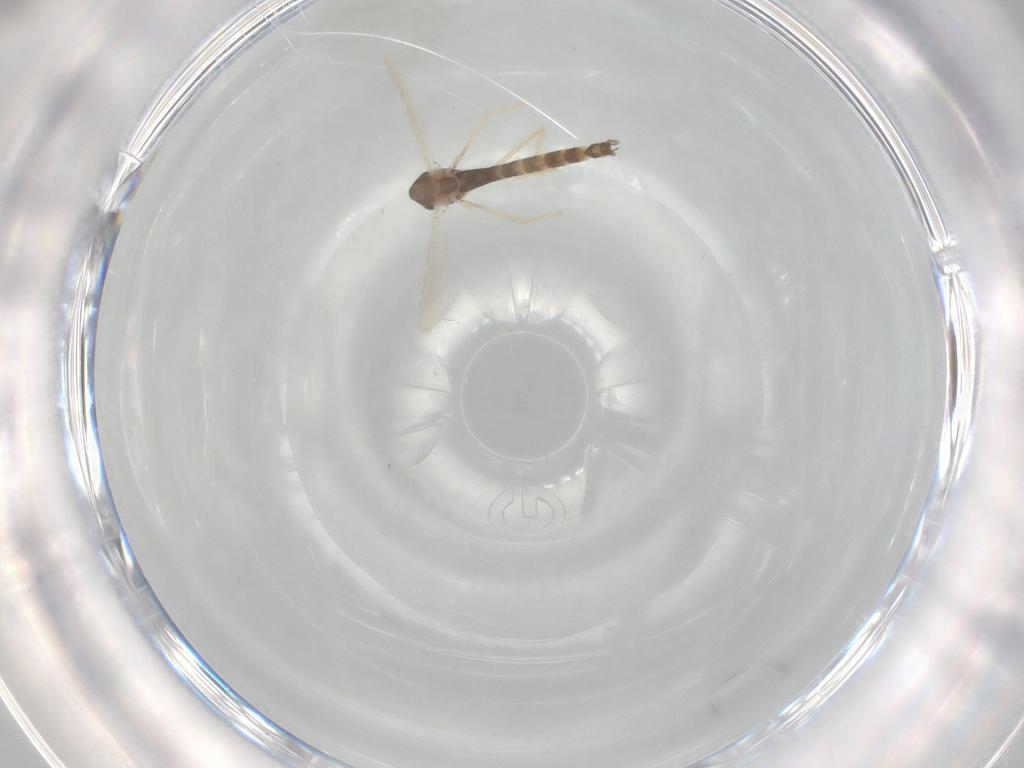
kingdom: Animalia
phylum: Arthropoda
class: Insecta
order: Diptera
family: Chironomidae
